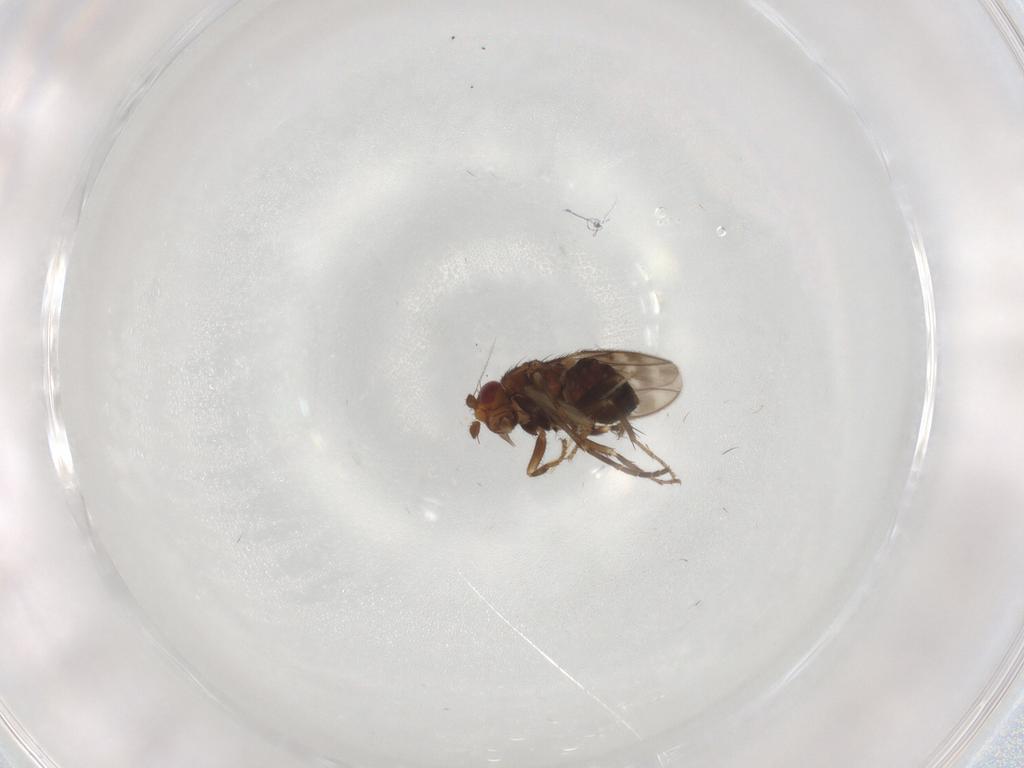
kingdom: Animalia
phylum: Arthropoda
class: Insecta
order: Diptera
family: Sphaeroceridae
